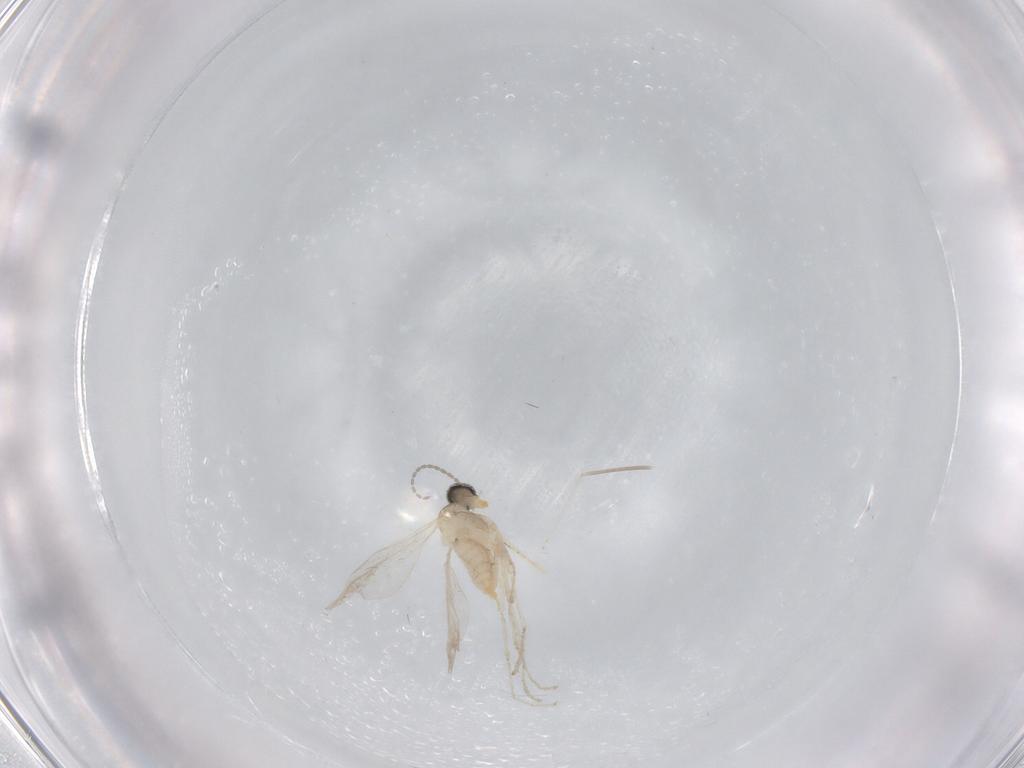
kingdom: Animalia
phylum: Arthropoda
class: Insecta
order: Diptera
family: Cecidomyiidae
